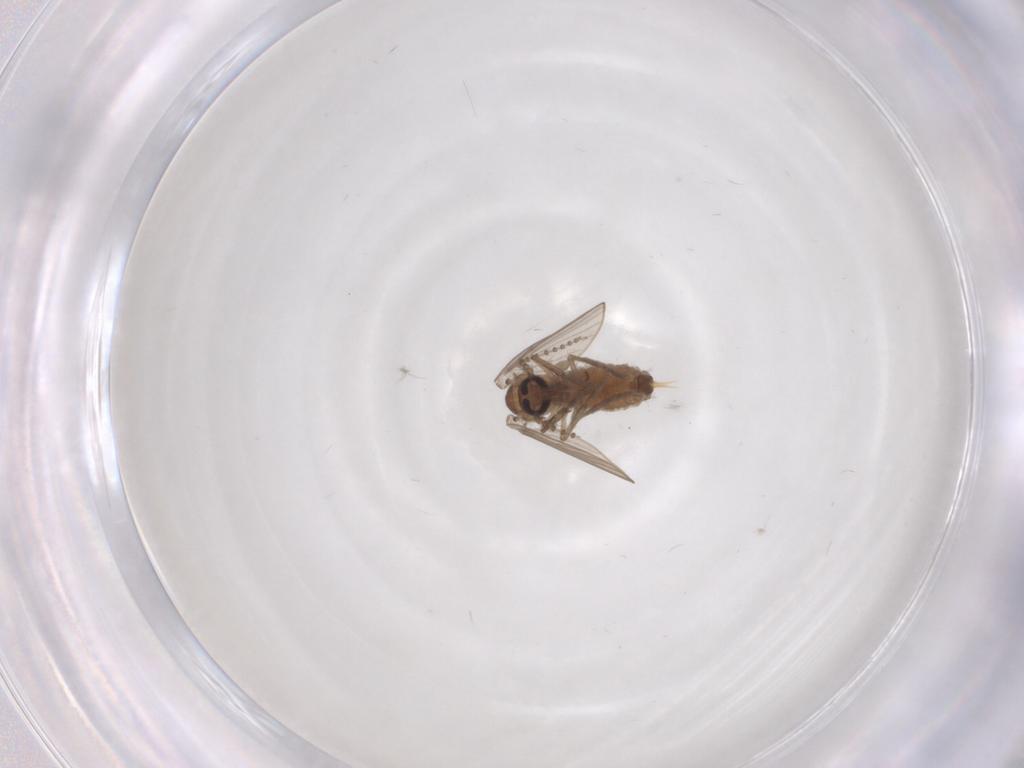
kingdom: Animalia
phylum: Arthropoda
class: Insecta
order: Diptera
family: Psychodidae
